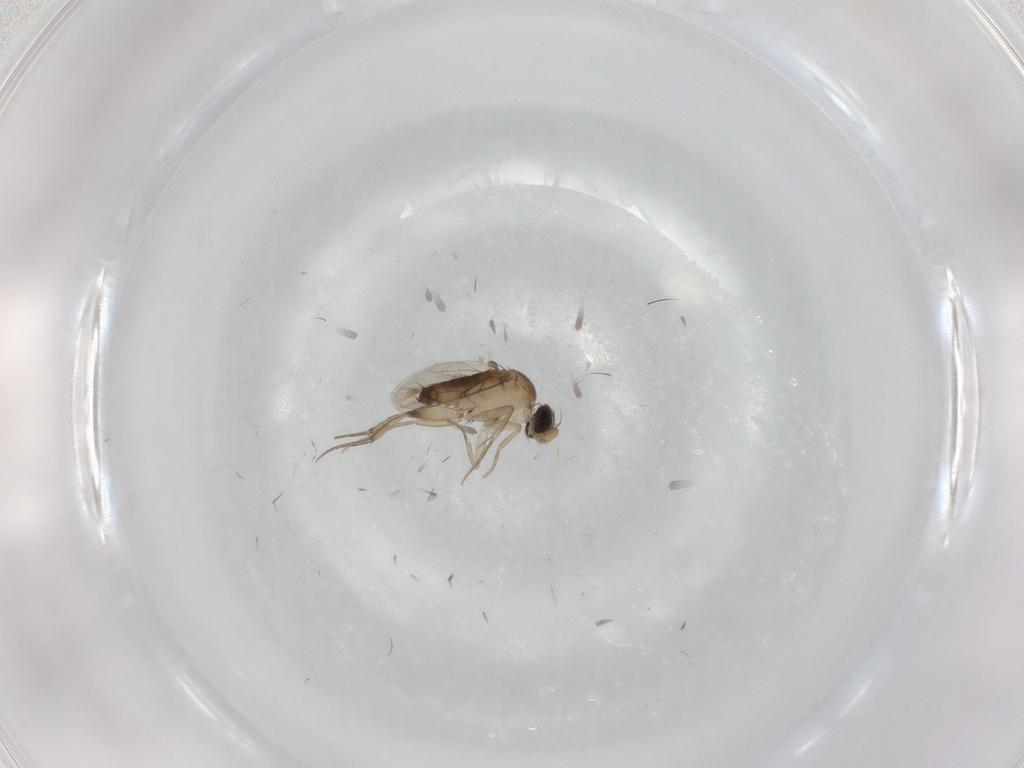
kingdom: Animalia
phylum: Arthropoda
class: Insecta
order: Diptera
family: Phoridae
